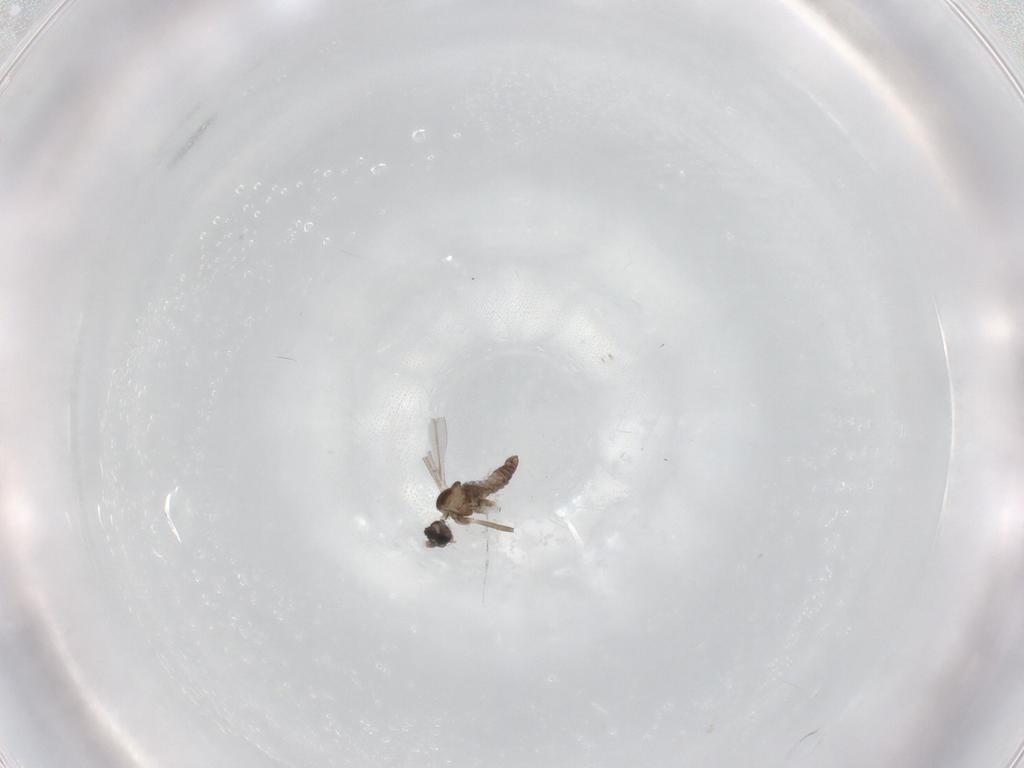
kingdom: Animalia
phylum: Arthropoda
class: Insecta
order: Diptera
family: Cecidomyiidae
